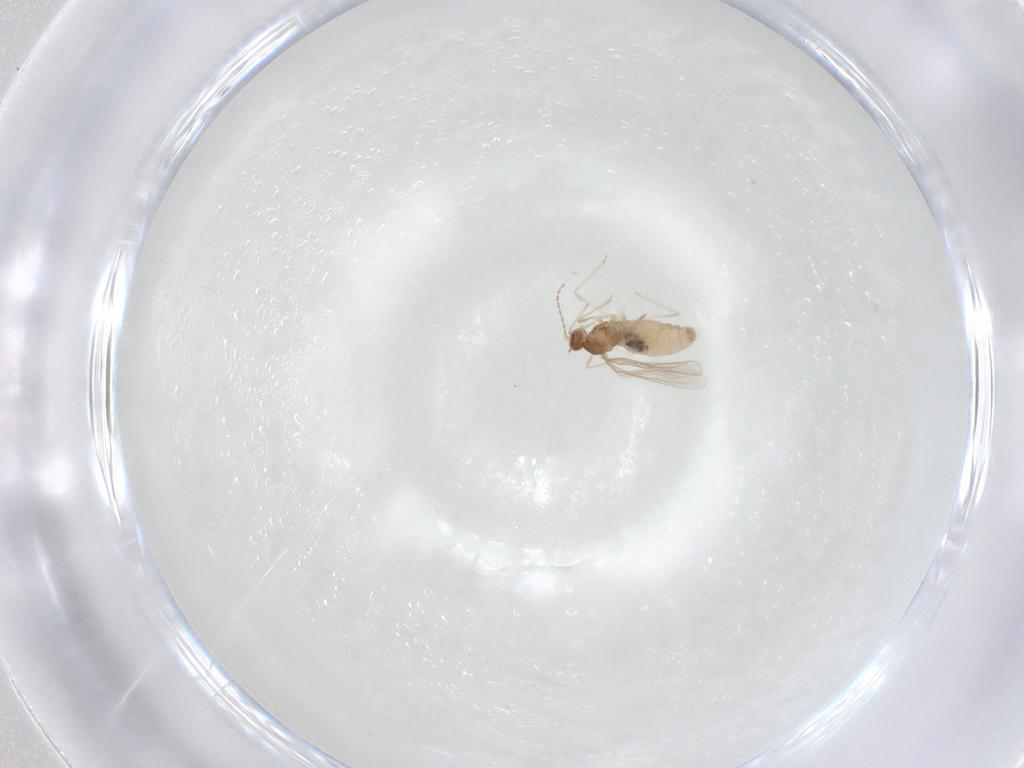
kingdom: Animalia
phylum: Arthropoda
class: Insecta
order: Diptera
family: Cecidomyiidae
